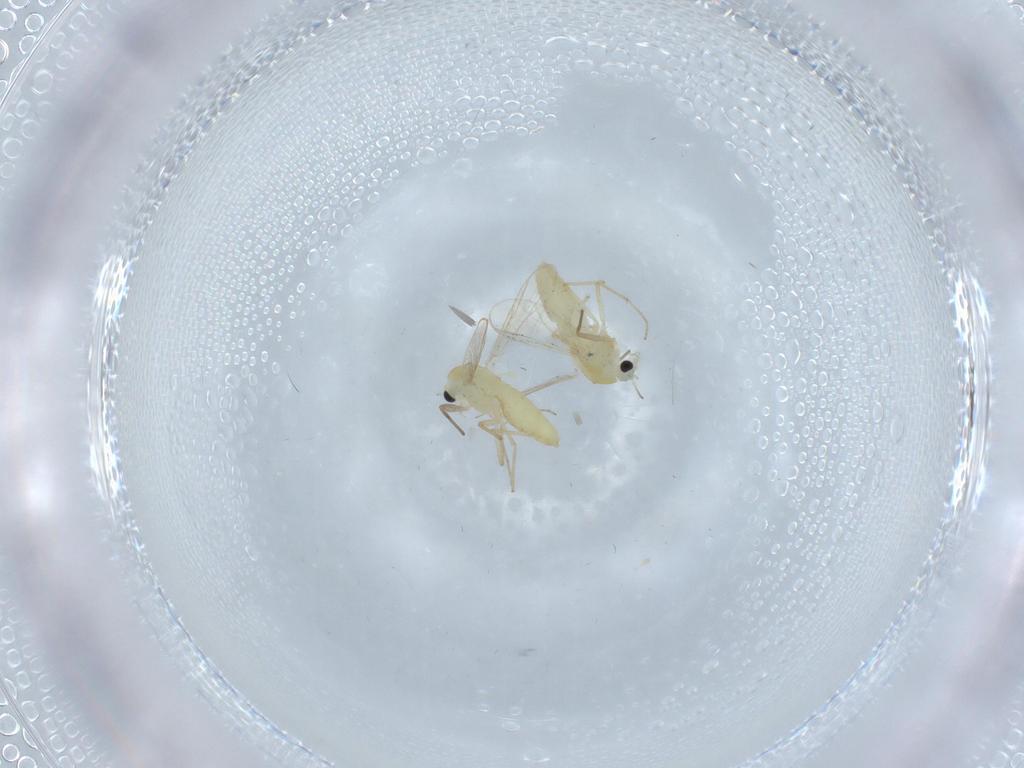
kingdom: Animalia
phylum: Arthropoda
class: Insecta
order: Diptera
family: Chironomidae
